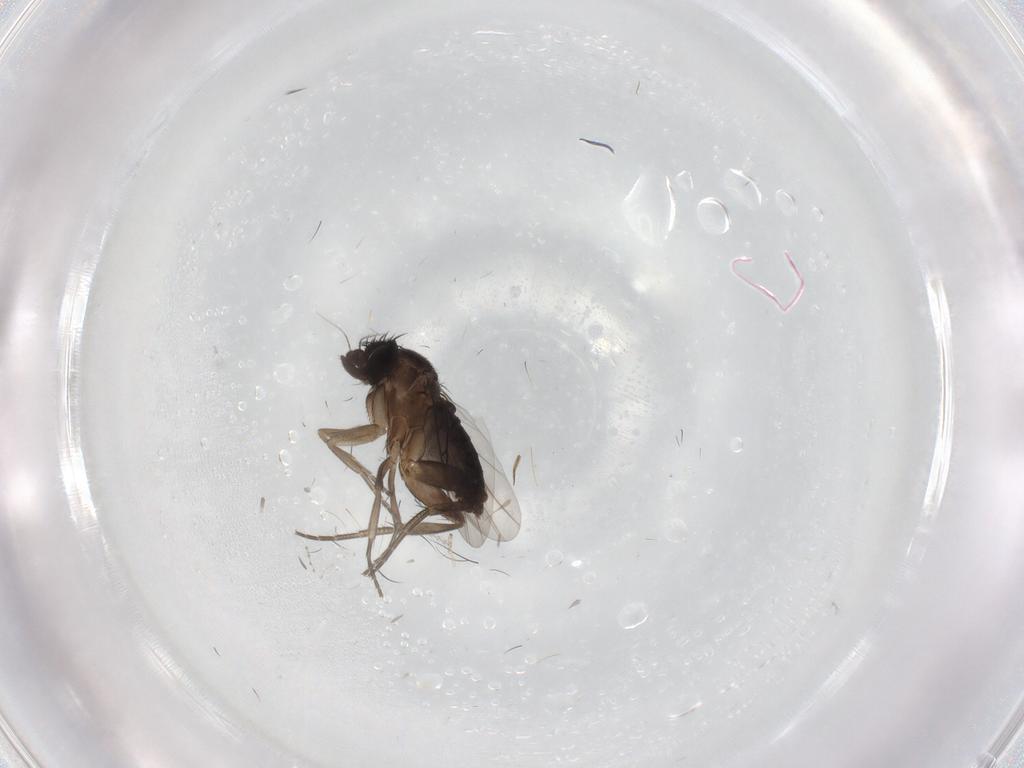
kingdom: Animalia
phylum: Arthropoda
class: Insecta
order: Diptera
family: Phoridae
